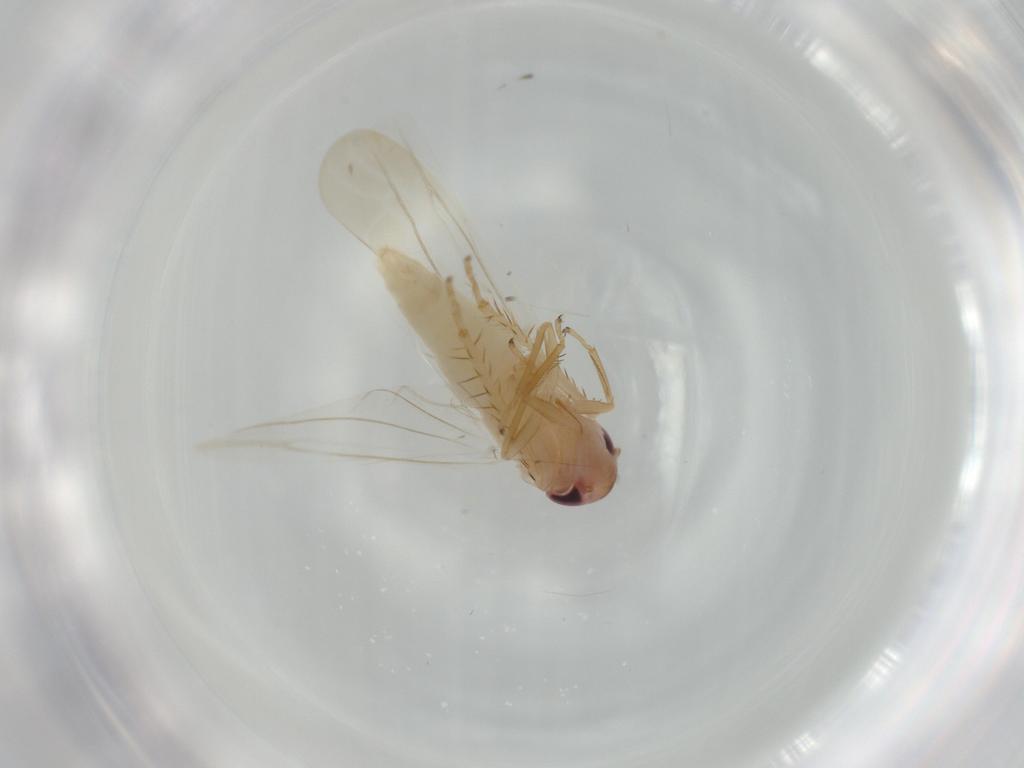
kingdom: Animalia
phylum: Arthropoda
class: Insecta
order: Hemiptera
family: Cicadellidae
